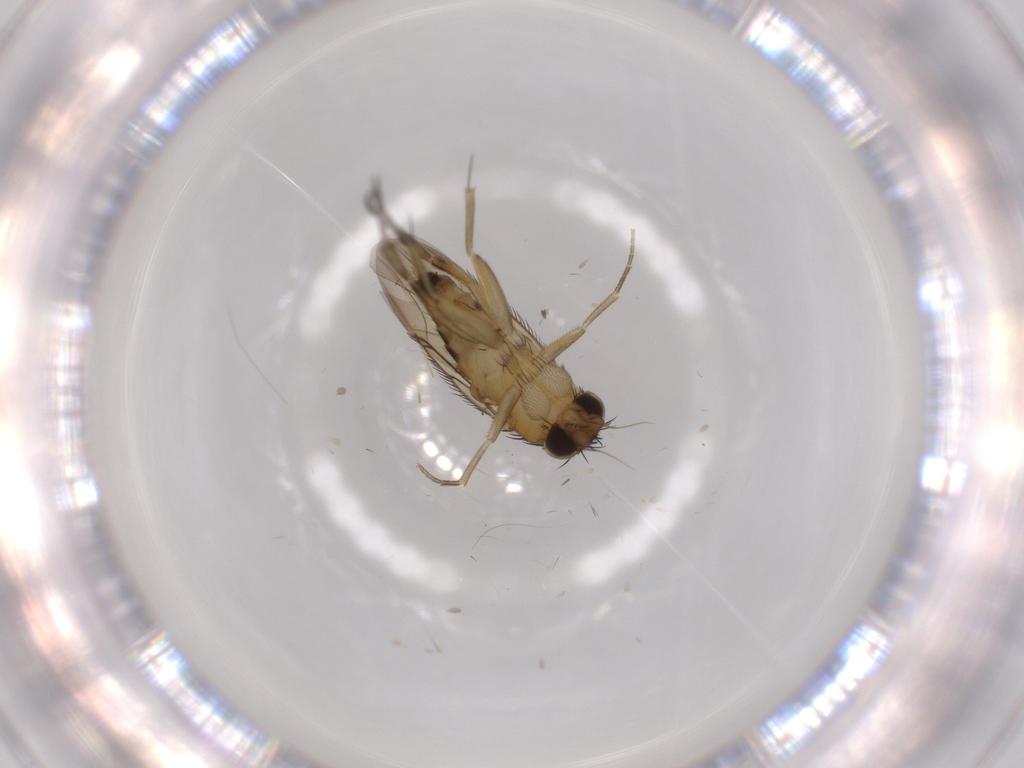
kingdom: Animalia
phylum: Arthropoda
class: Insecta
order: Diptera
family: Phoridae
